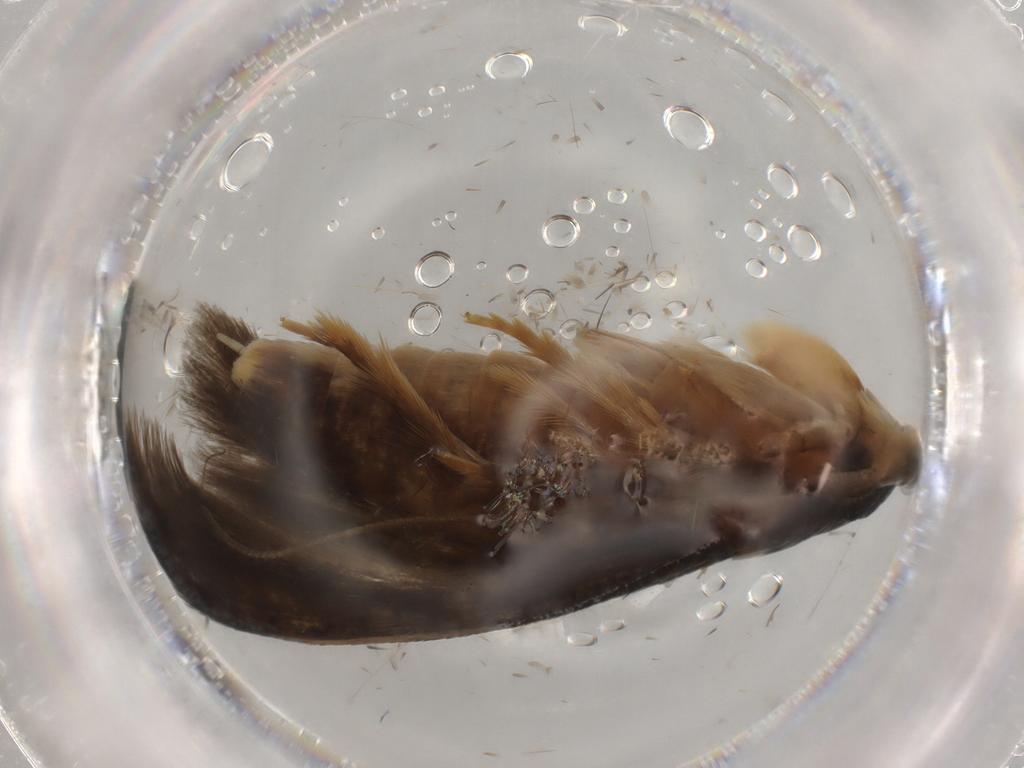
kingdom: Animalia
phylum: Arthropoda
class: Insecta
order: Lepidoptera
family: Tineidae
